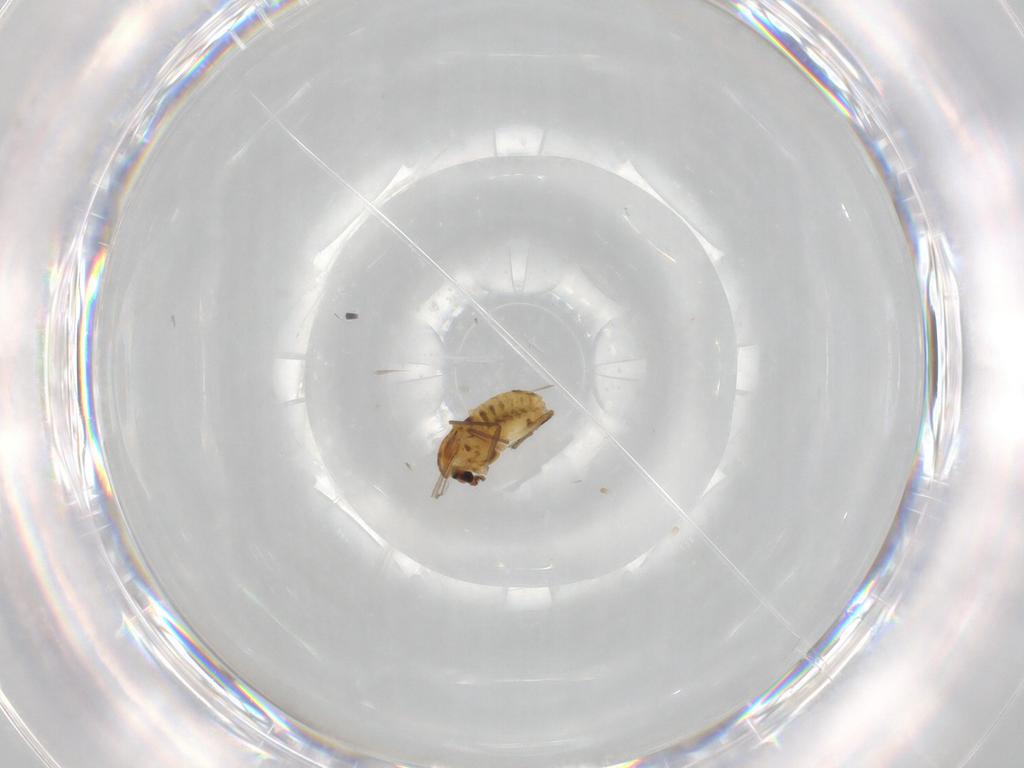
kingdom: Animalia
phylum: Arthropoda
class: Insecta
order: Diptera
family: Chironomidae
